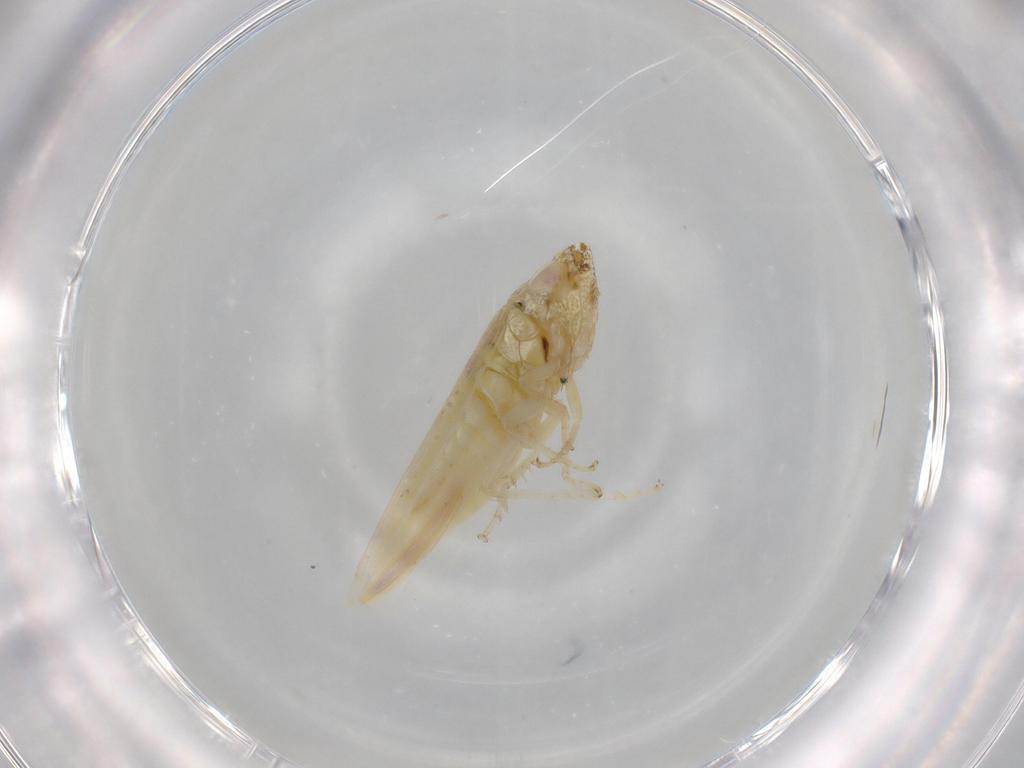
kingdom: Animalia
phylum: Arthropoda
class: Insecta
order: Hemiptera
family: Cicadellidae
